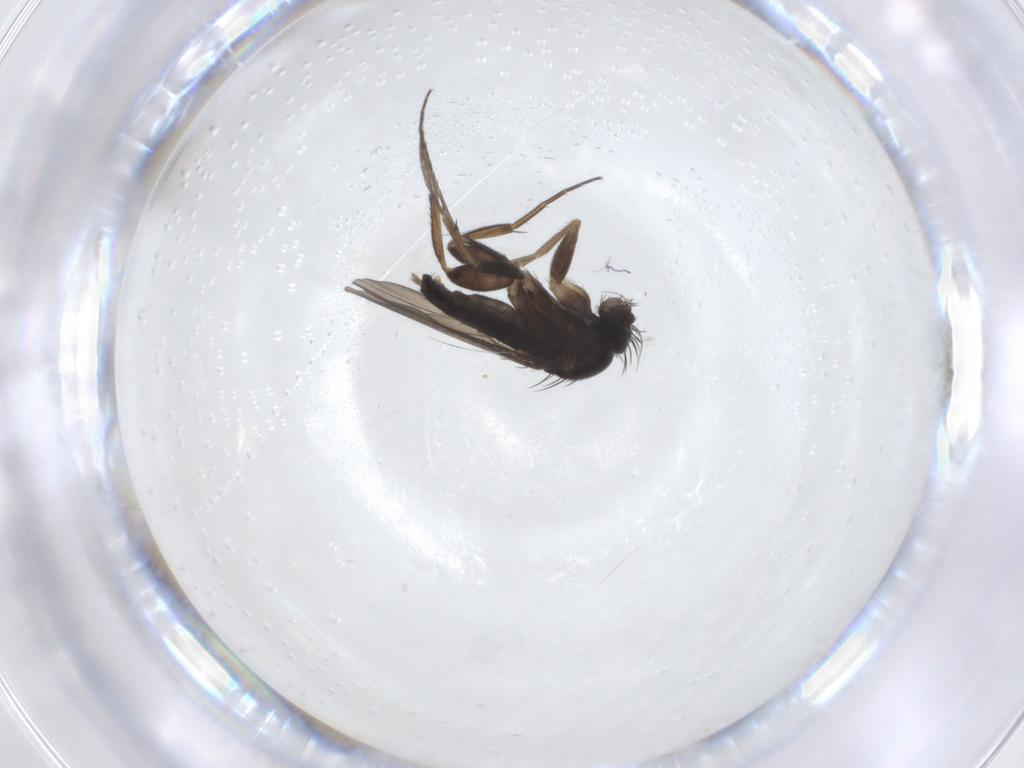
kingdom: Animalia
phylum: Arthropoda
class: Insecta
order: Diptera
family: Phoridae
